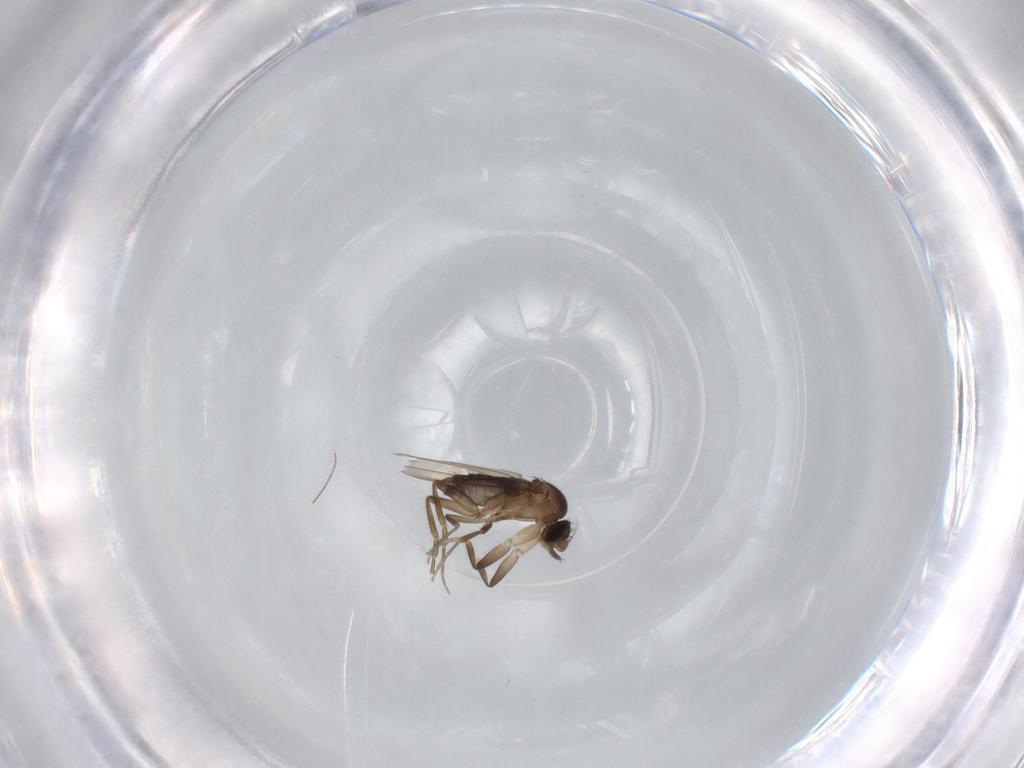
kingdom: Animalia
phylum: Arthropoda
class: Insecta
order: Diptera
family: Phoridae
